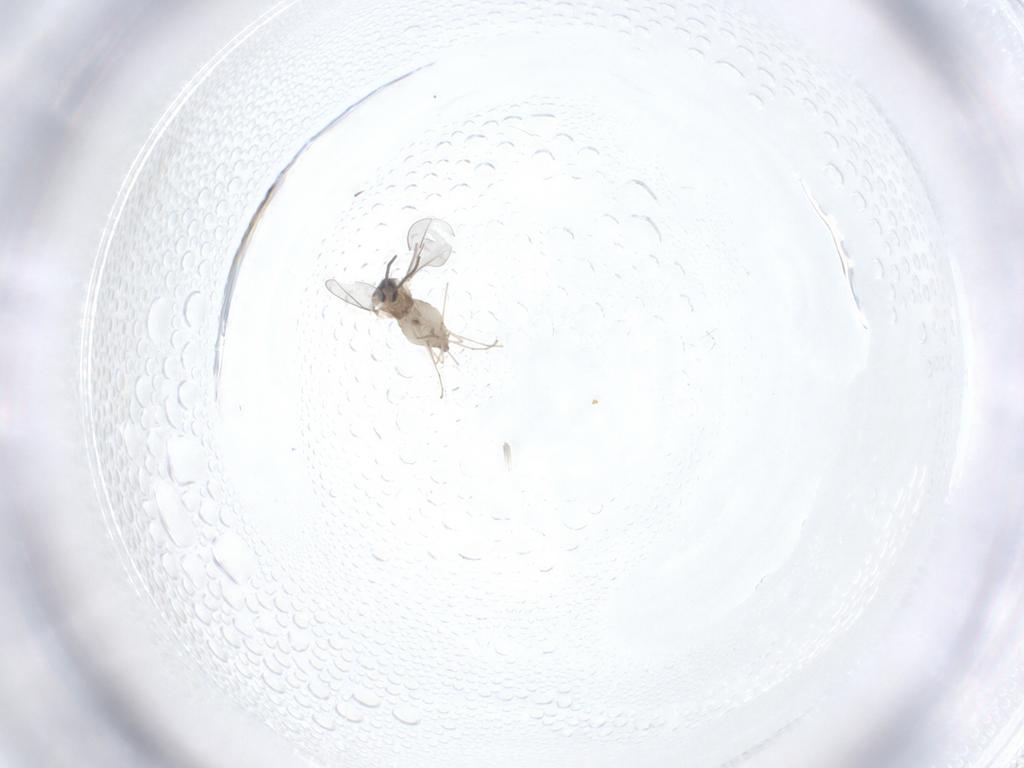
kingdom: Animalia
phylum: Arthropoda
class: Insecta
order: Diptera
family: Cecidomyiidae
